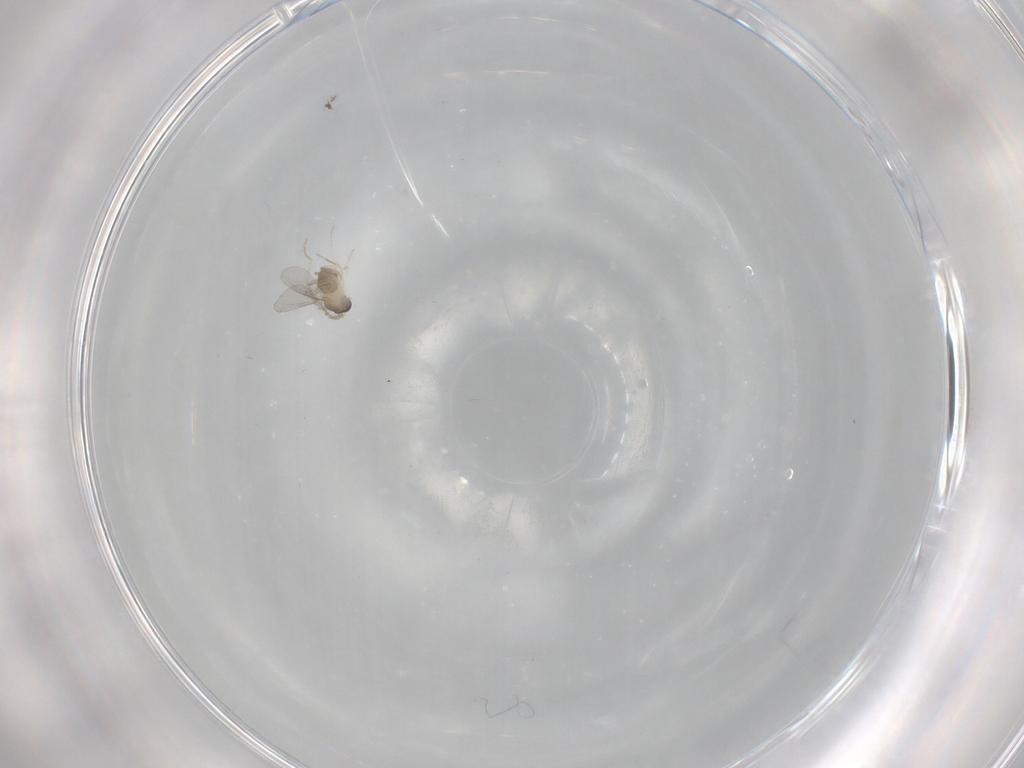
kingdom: Animalia
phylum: Arthropoda
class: Insecta
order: Diptera
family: Cecidomyiidae
